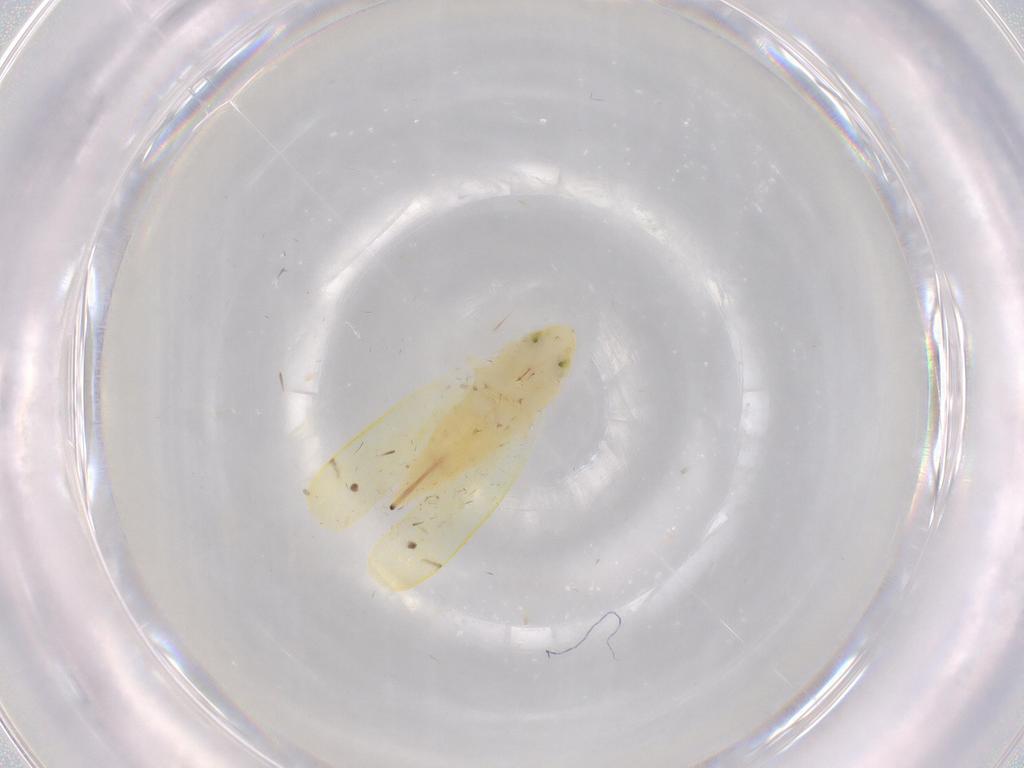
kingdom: Animalia
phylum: Arthropoda
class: Insecta
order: Hemiptera
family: Cicadellidae
